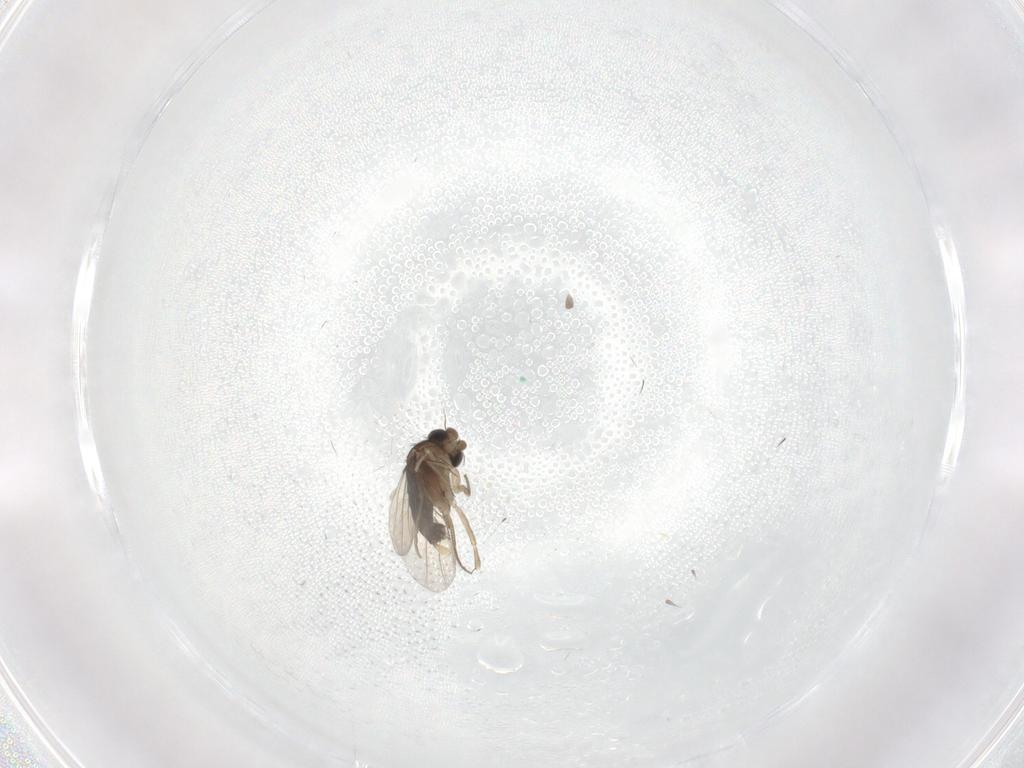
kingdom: Animalia
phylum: Arthropoda
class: Insecta
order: Diptera
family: Phoridae
